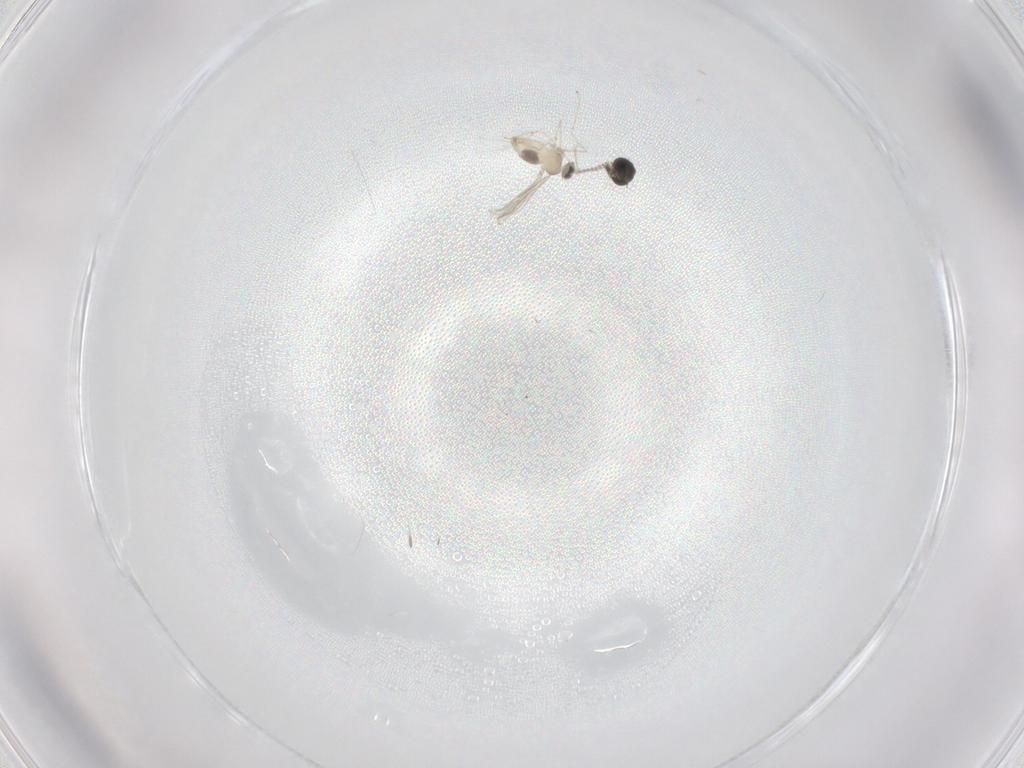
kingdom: Animalia
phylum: Arthropoda
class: Insecta
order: Diptera
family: Cecidomyiidae
